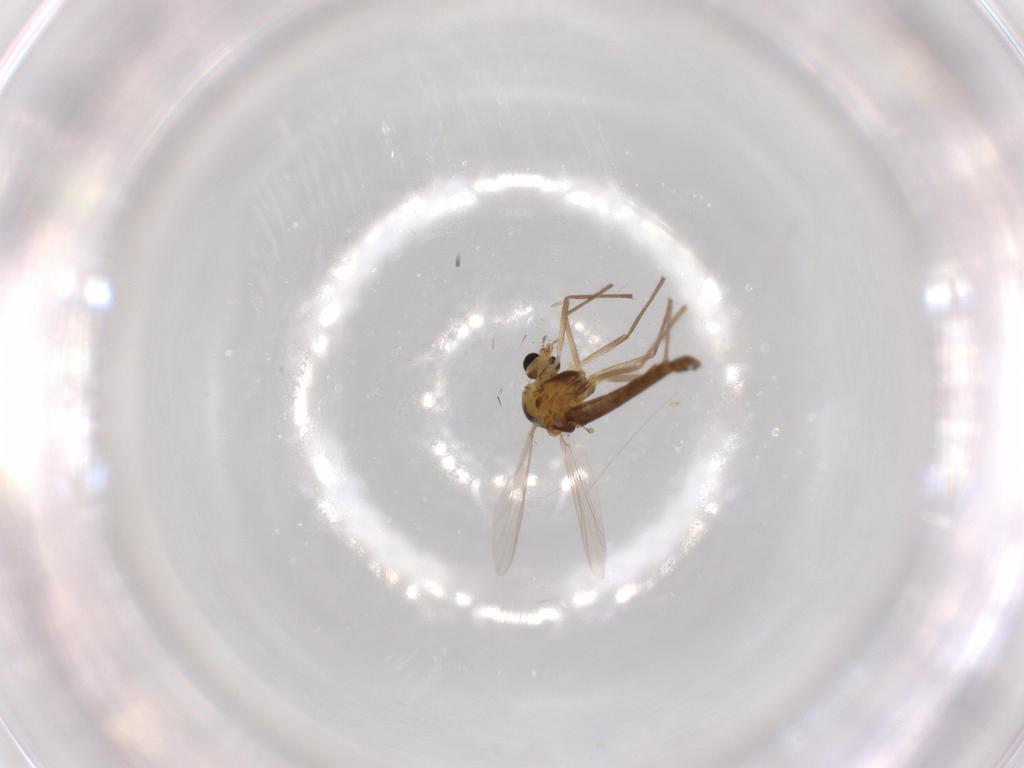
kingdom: Animalia
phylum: Arthropoda
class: Insecta
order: Diptera
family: Chironomidae
